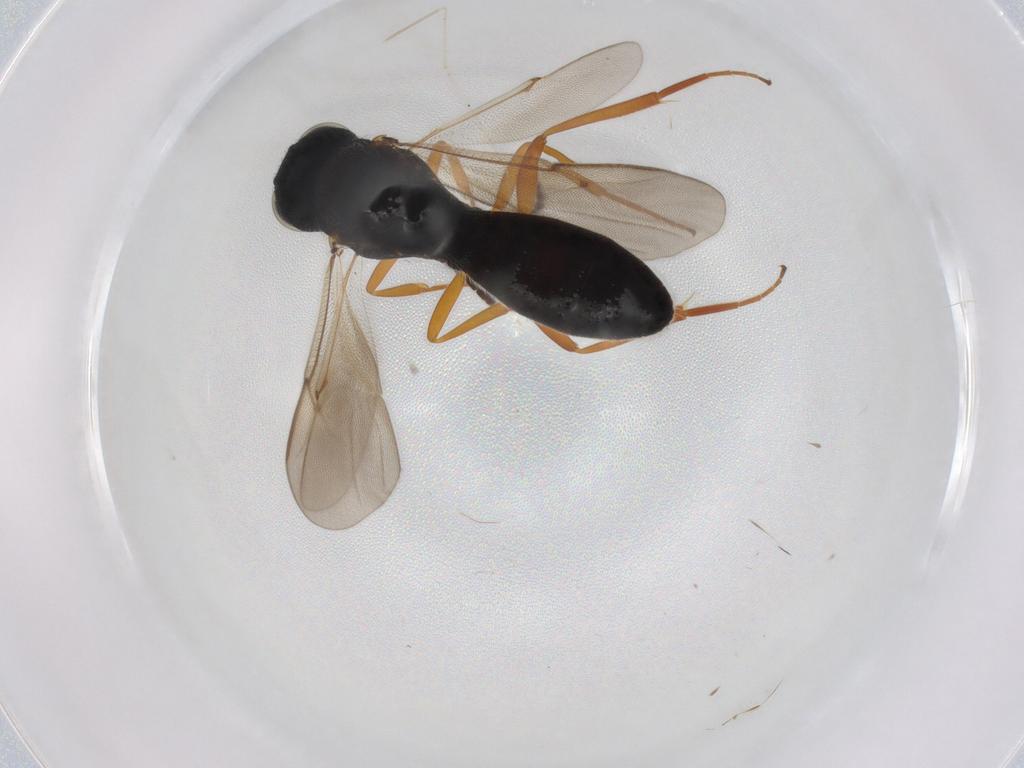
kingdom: Animalia
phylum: Arthropoda
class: Insecta
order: Hymenoptera
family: Scelionidae
